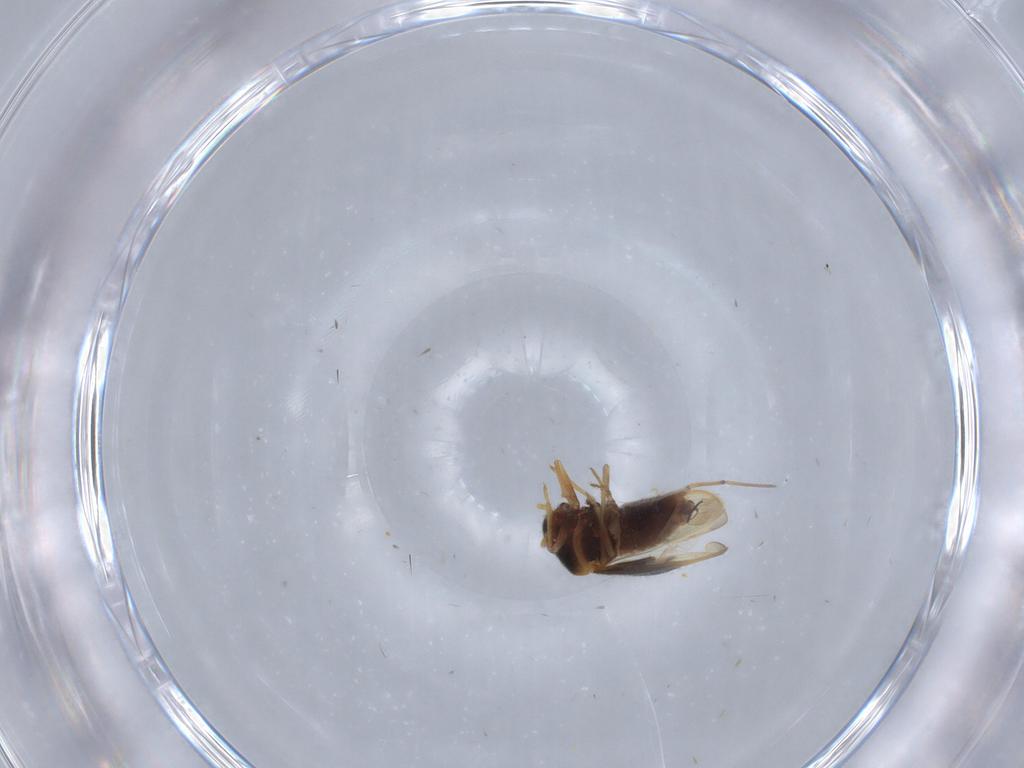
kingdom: Animalia
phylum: Arthropoda
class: Insecta
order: Hemiptera
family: Schizopteridae
